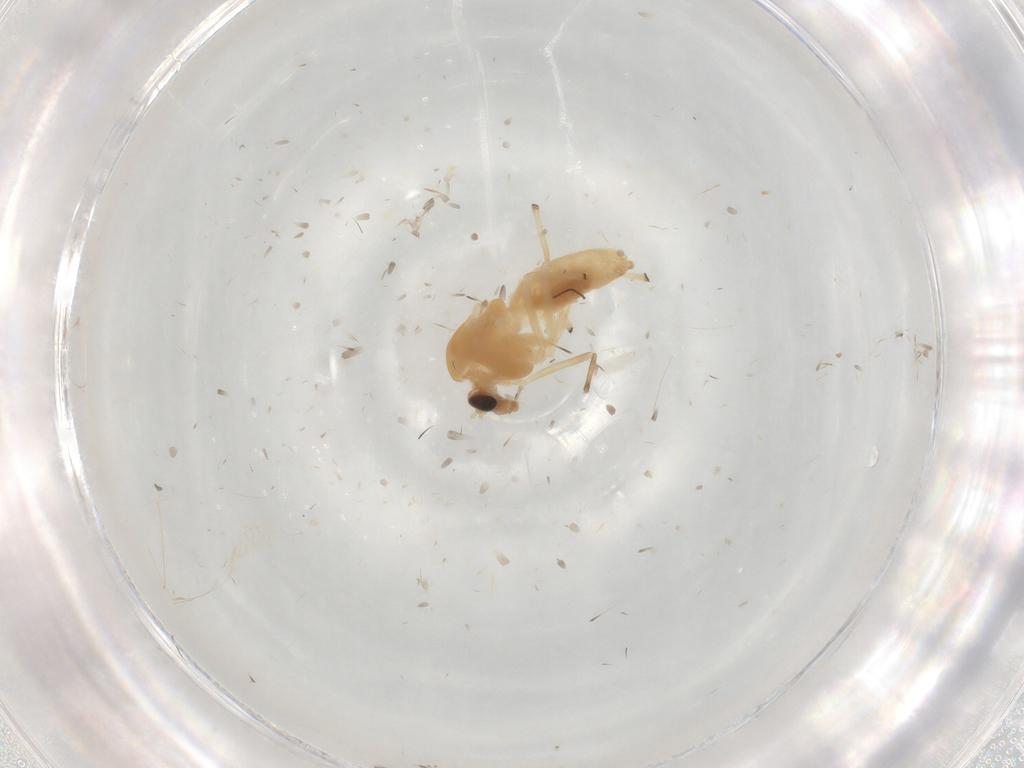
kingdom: Animalia
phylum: Arthropoda
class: Insecta
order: Diptera
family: Chironomidae
